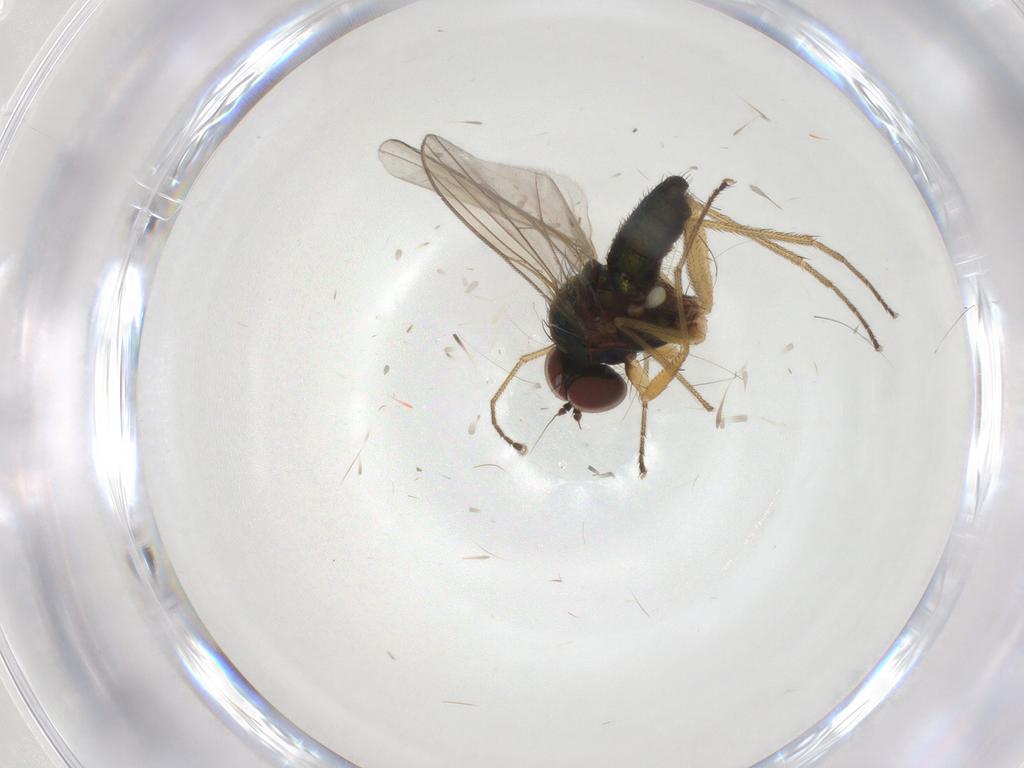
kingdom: Animalia
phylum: Arthropoda
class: Insecta
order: Diptera
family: Dolichopodidae
